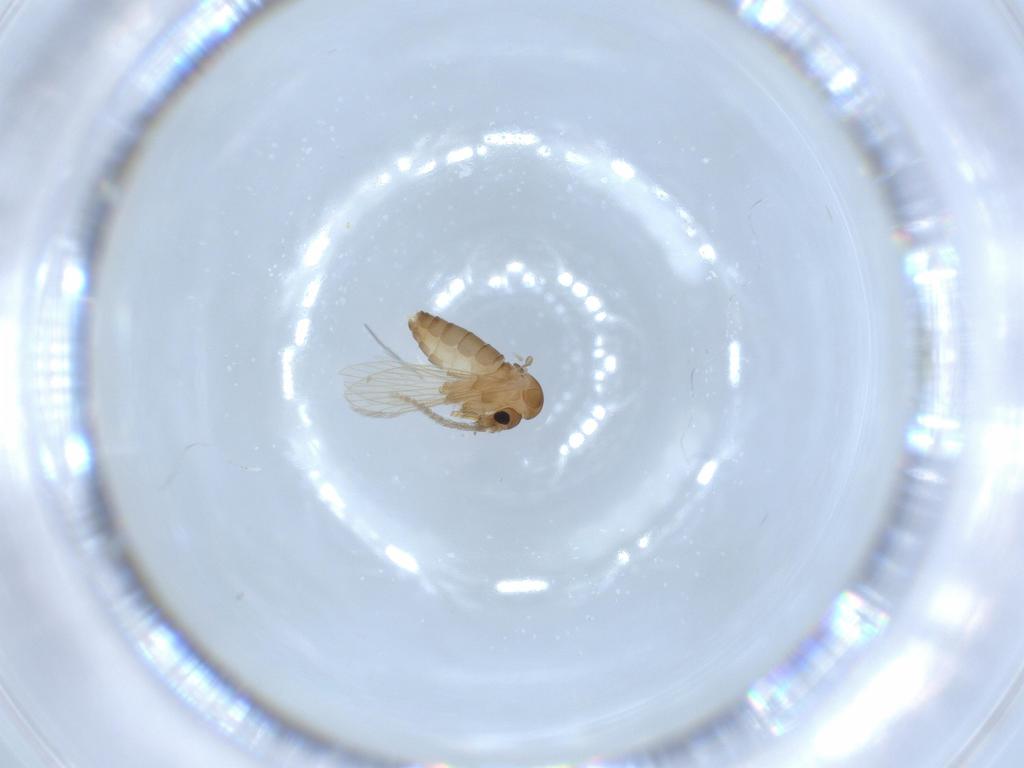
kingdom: Animalia
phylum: Arthropoda
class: Insecta
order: Diptera
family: Psychodidae
